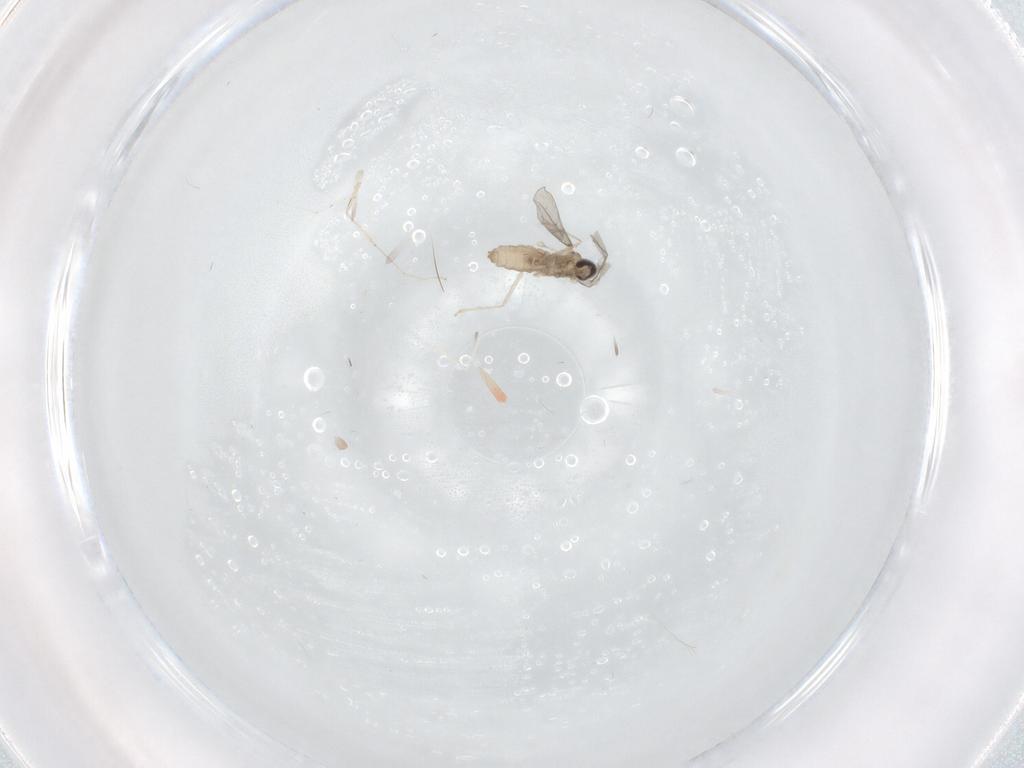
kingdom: Animalia
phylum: Arthropoda
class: Insecta
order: Diptera
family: Cecidomyiidae
